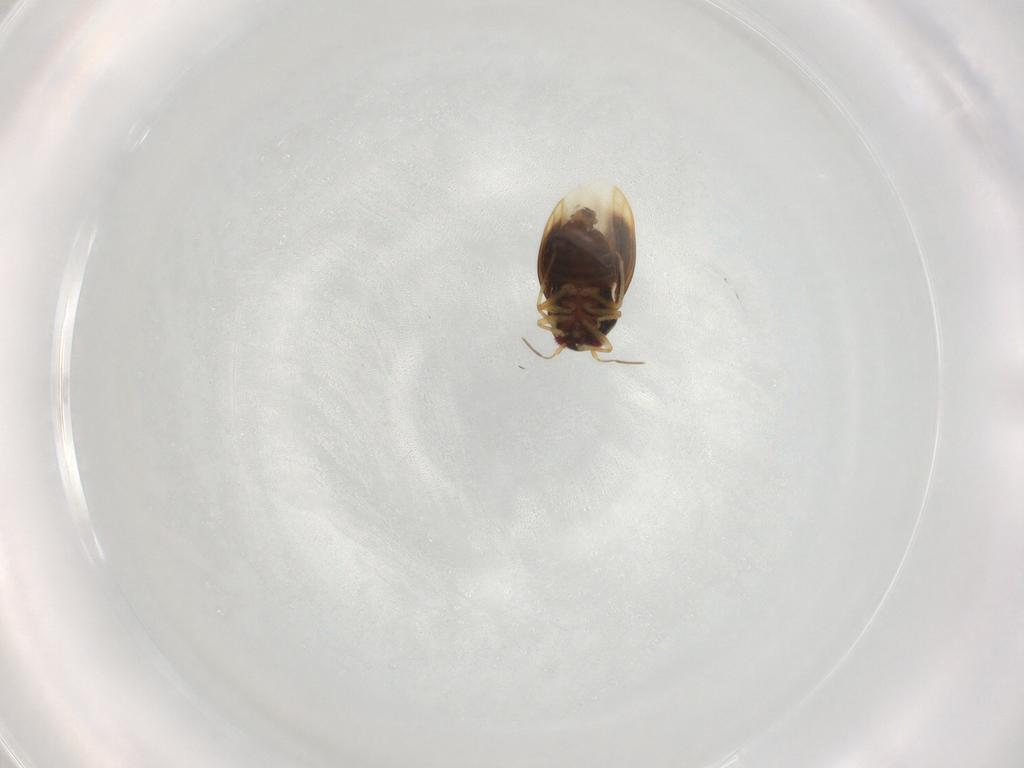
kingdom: Animalia
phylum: Arthropoda
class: Insecta
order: Hemiptera
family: Schizopteridae
